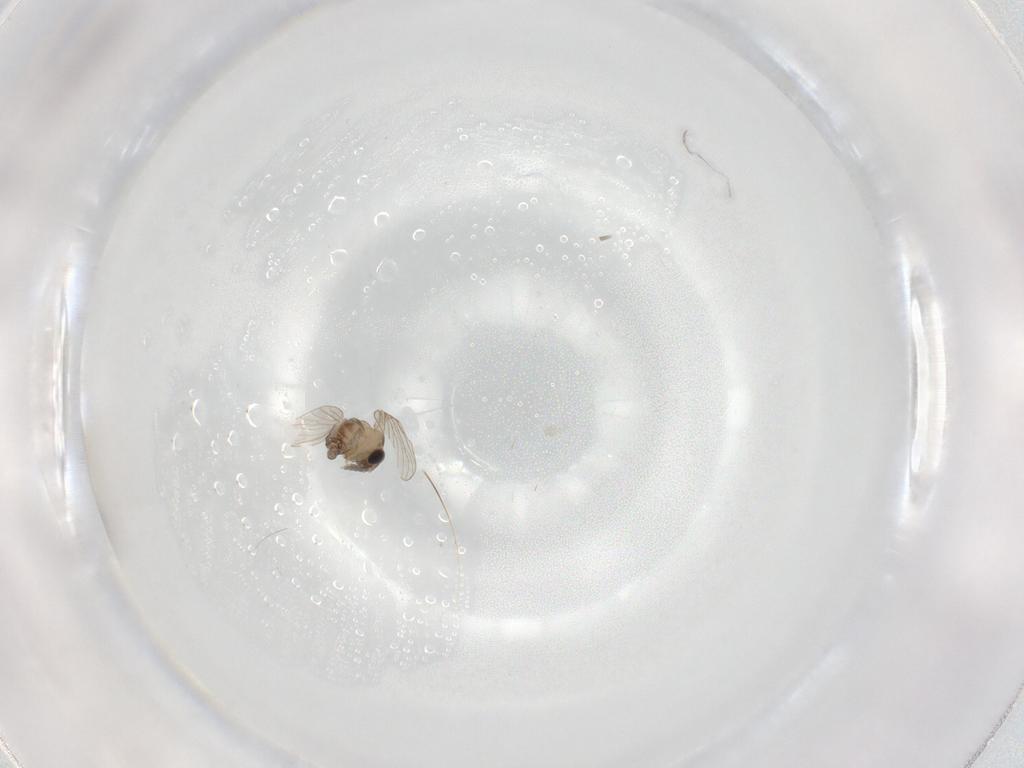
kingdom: Animalia
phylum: Arthropoda
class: Insecta
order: Diptera
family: Psychodidae
